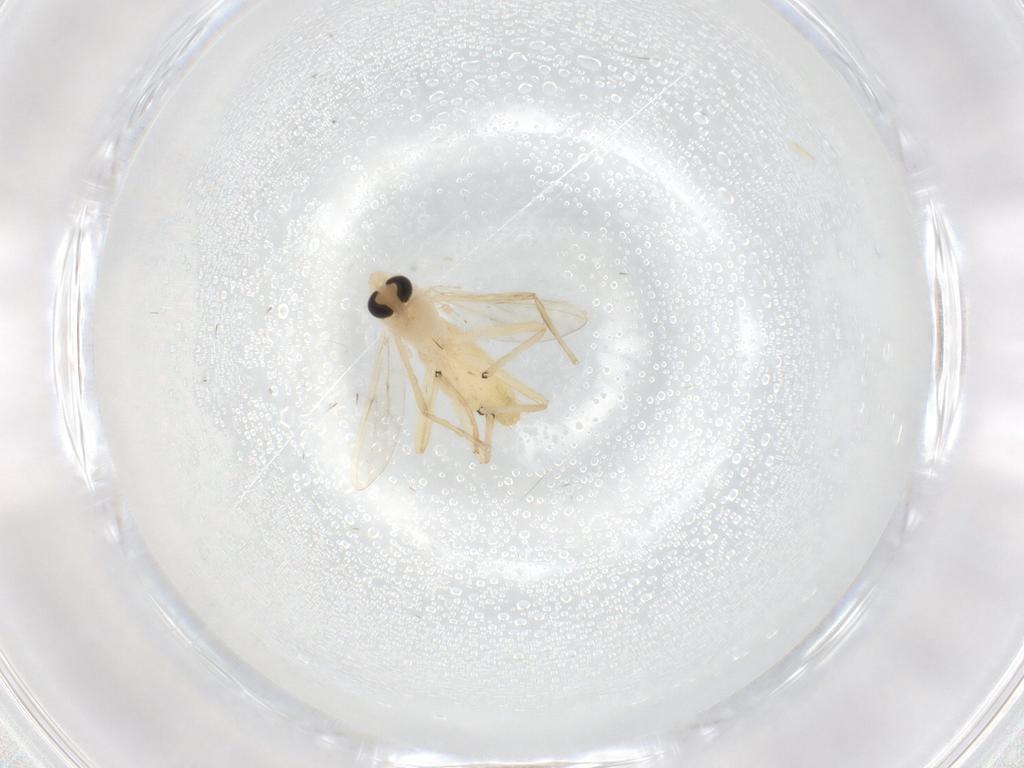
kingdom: Animalia
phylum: Arthropoda
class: Insecta
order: Diptera
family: Chironomidae
